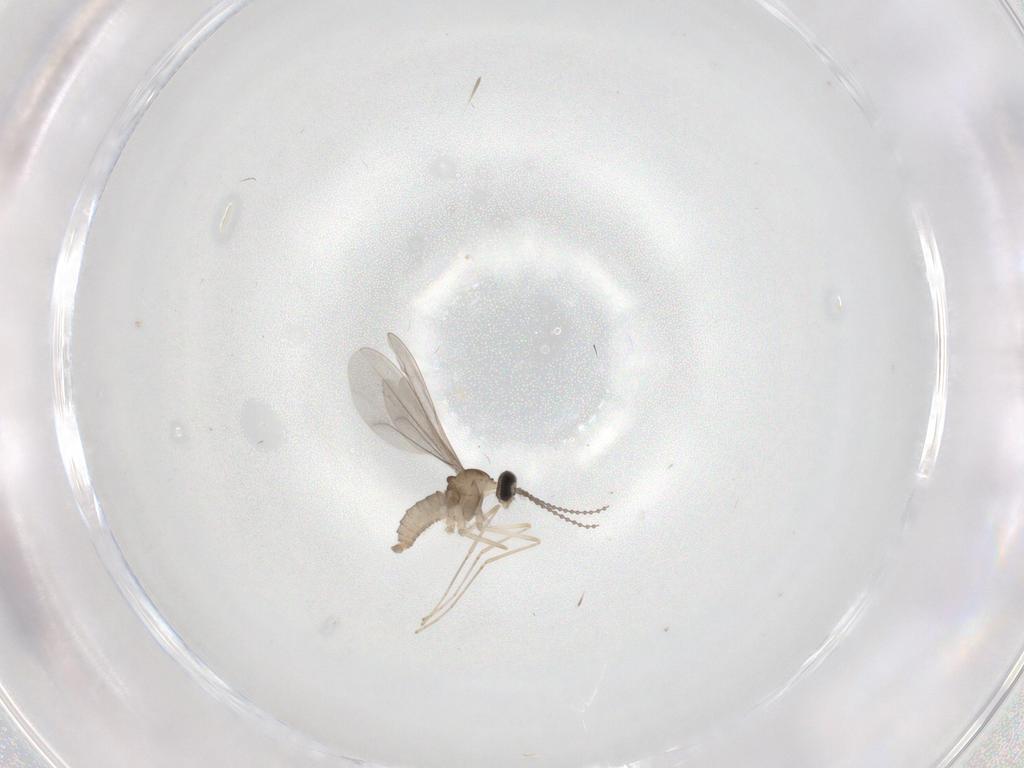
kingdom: Animalia
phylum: Arthropoda
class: Insecta
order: Diptera
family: Cecidomyiidae
